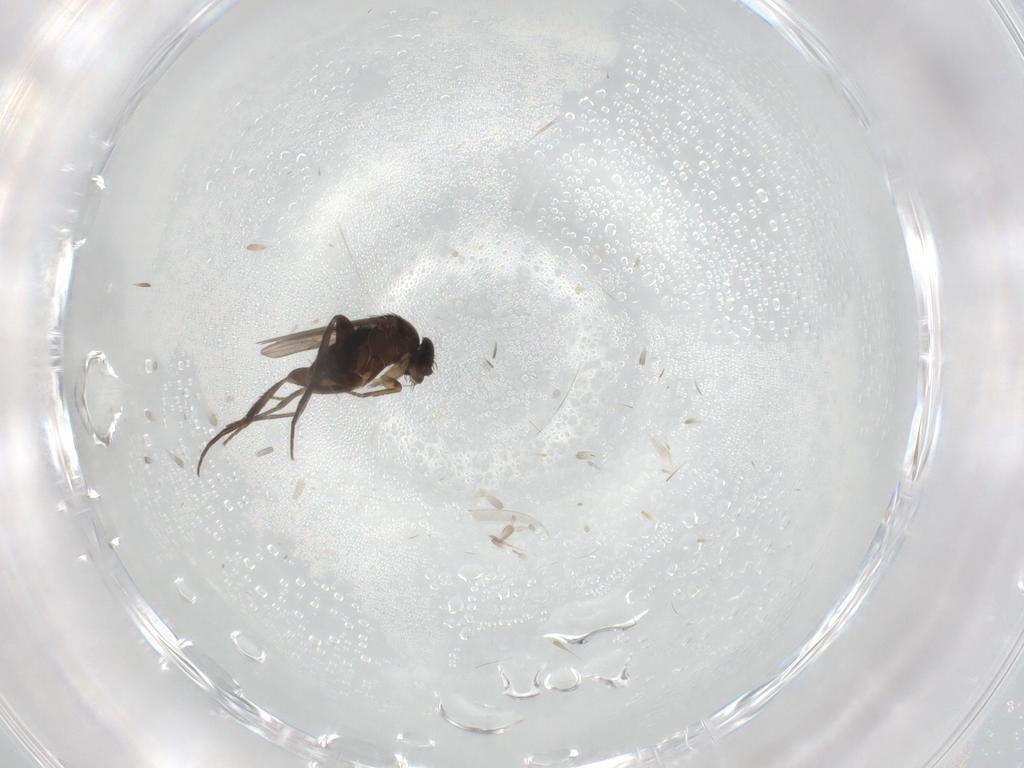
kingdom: Animalia
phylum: Arthropoda
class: Insecta
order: Diptera
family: Phoridae
